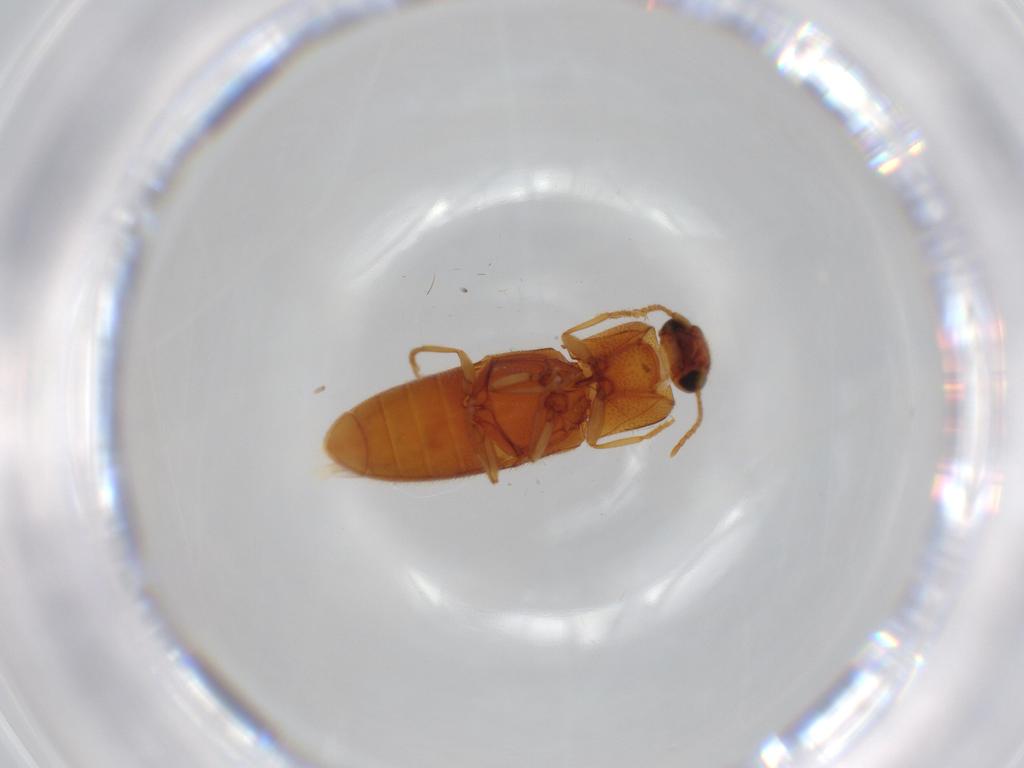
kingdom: Animalia
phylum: Arthropoda
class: Insecta
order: Coleoptera
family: Elateridae
